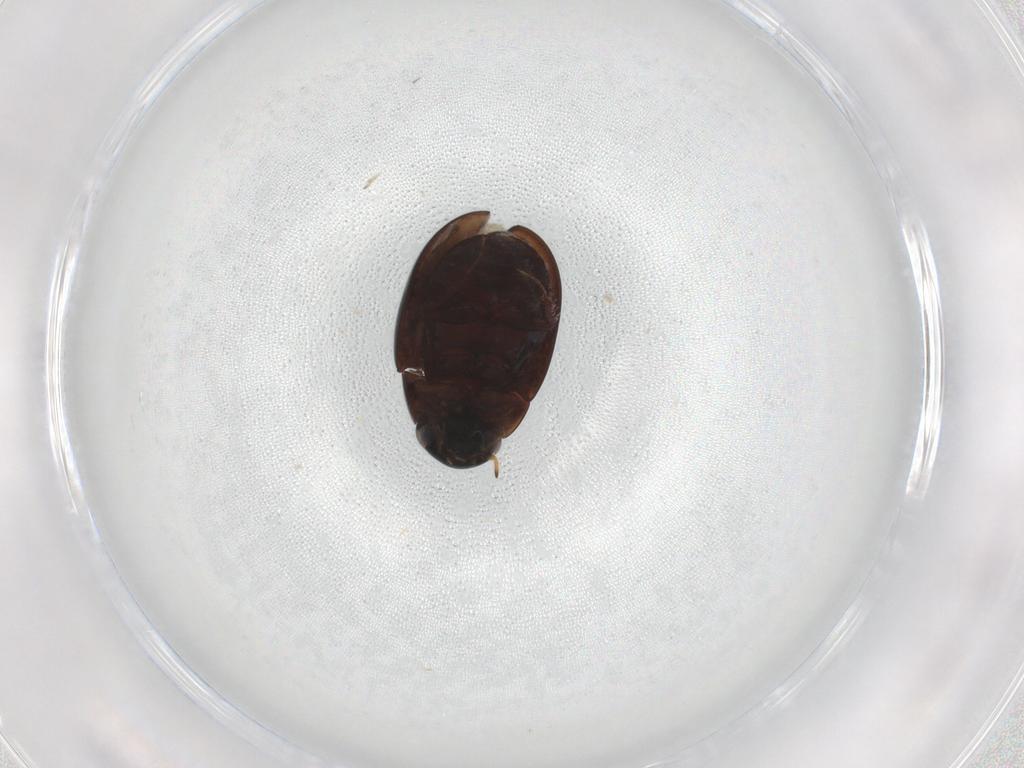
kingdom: Animalia
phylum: Arthropoda
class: Insecta
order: Coleoptera
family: Hydrophilidae
